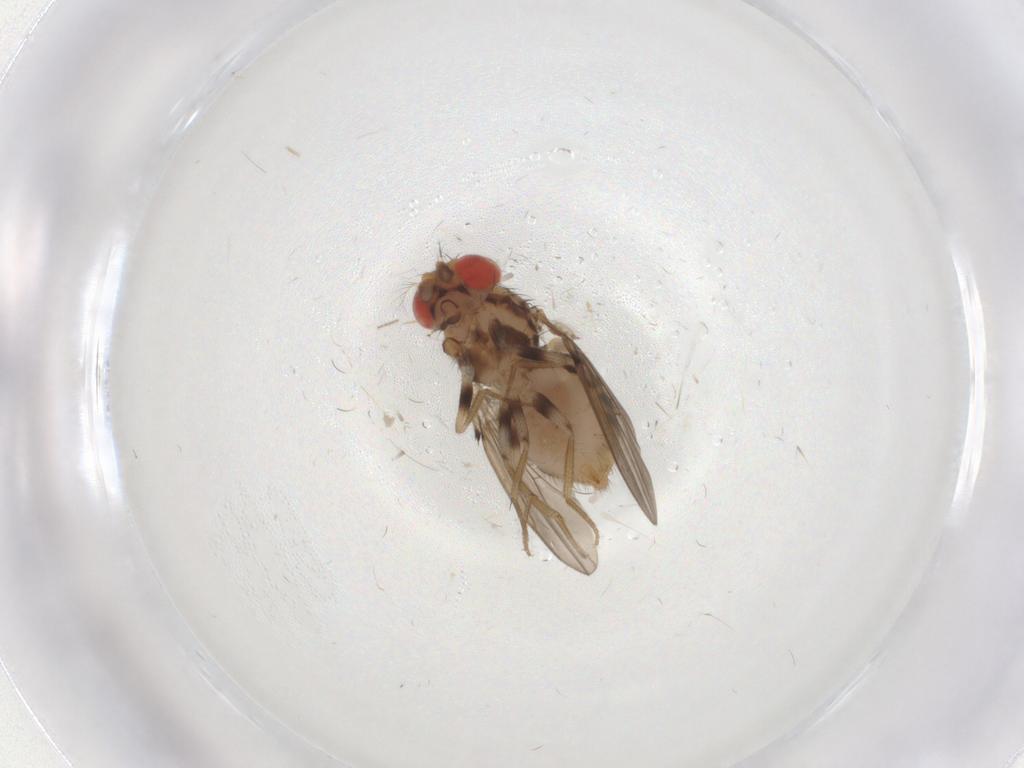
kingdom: Animalia
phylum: Arthropoda
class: Insecta
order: Diptera
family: Drosophilidae
